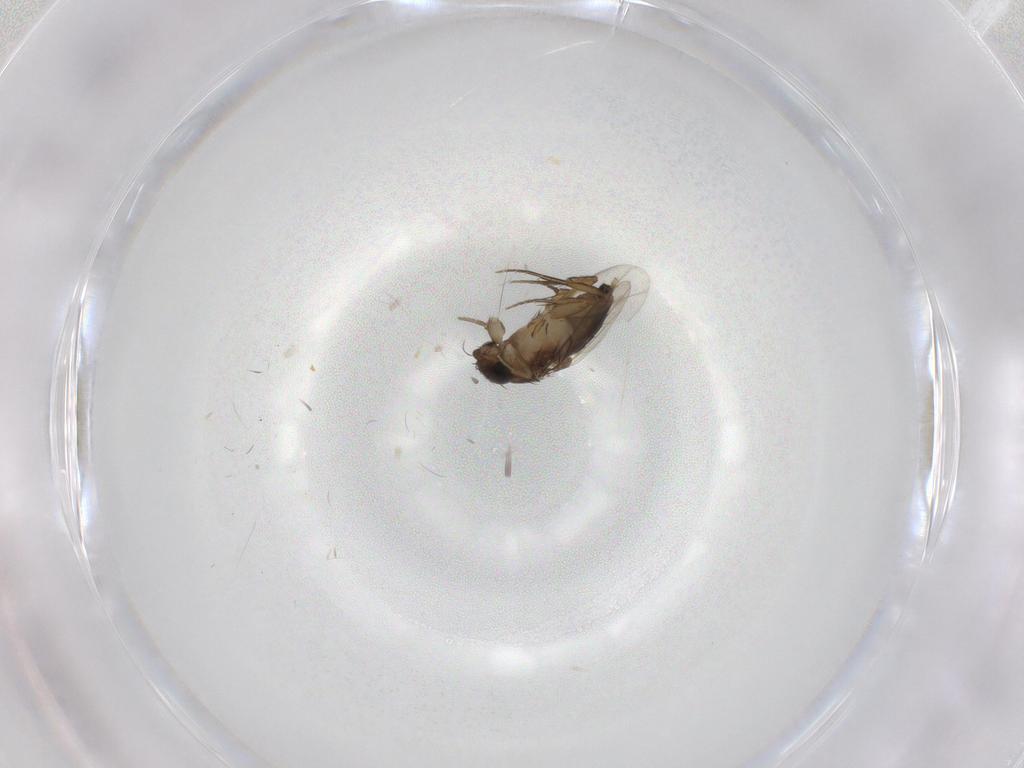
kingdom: Animalia
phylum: Arthropoda
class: Insecta
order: Diptera
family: Phoridae
